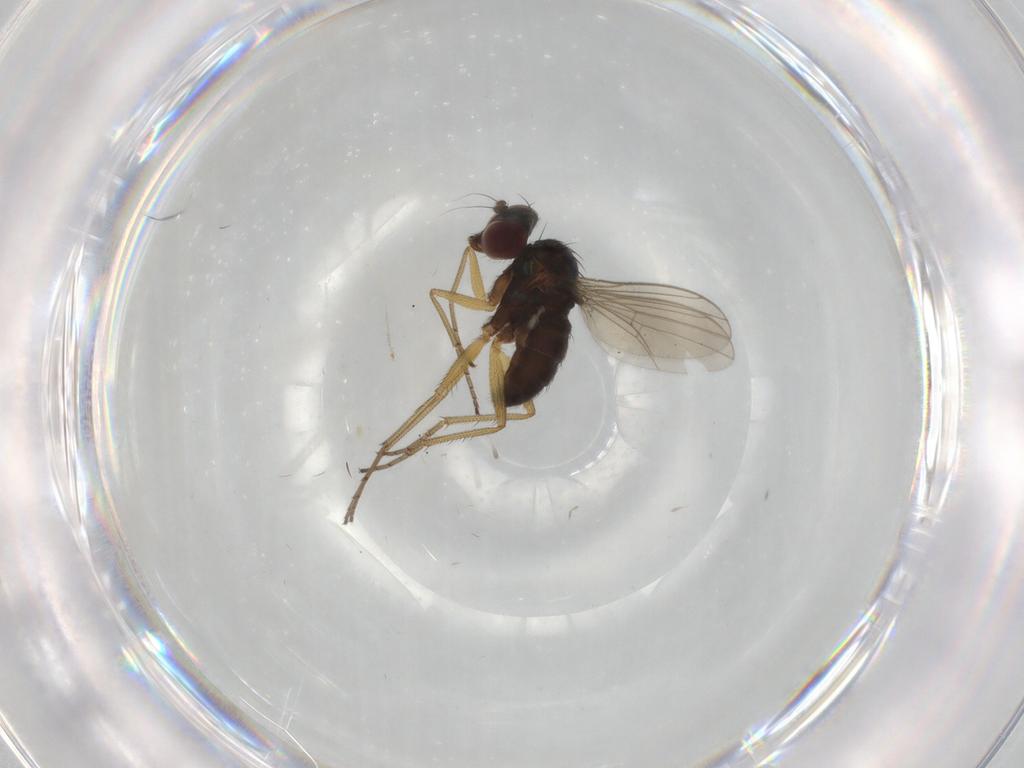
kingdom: Animalia
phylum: Arthropoda
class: Insecta
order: Diptera
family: Dolichopodidae
